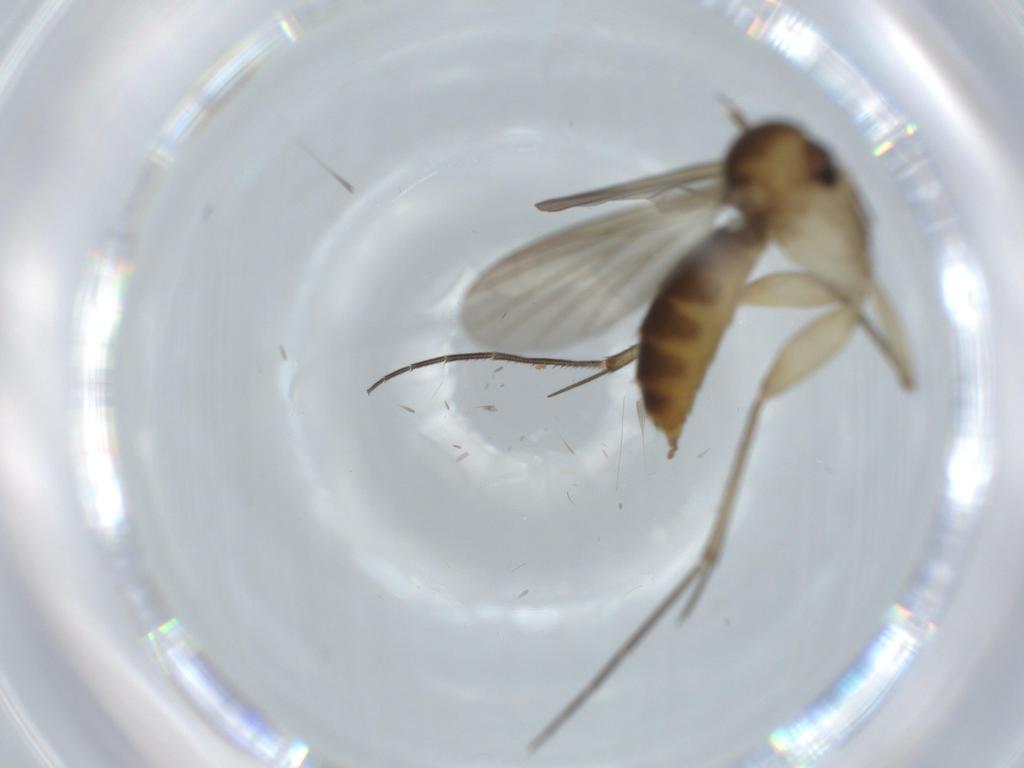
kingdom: Animalia
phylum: Arthropoda
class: Insecta
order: Diptera
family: Mycetophilidae
